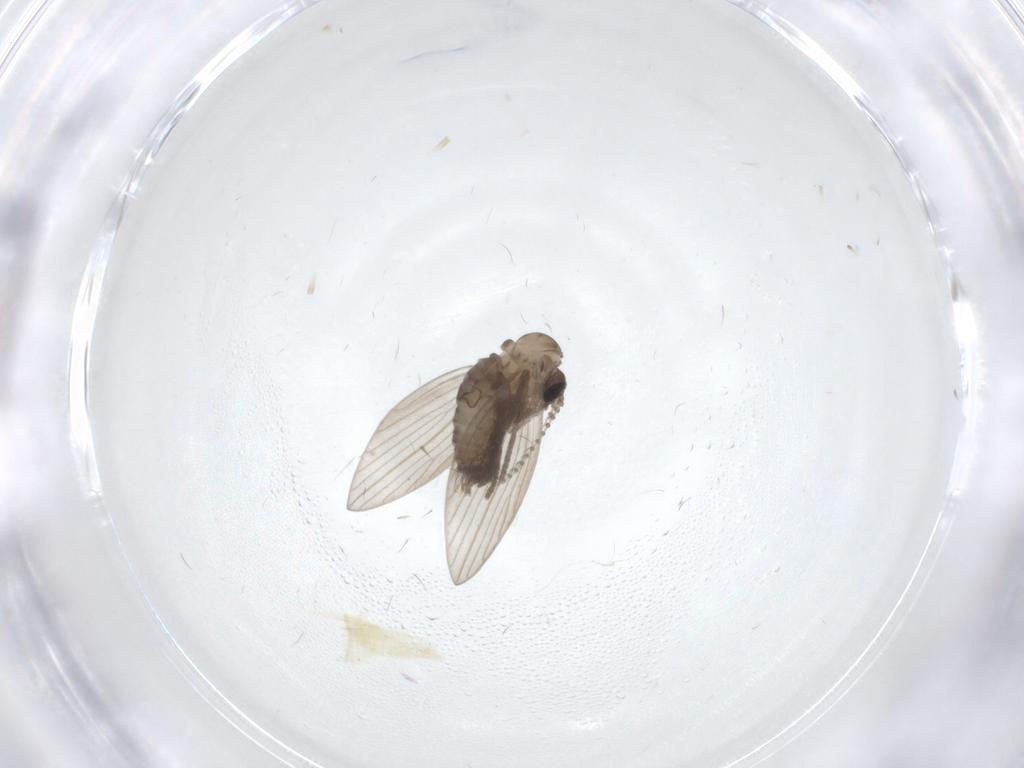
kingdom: Animalia
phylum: Arthropoda
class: Insecta
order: Diptera
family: Psychodidae
